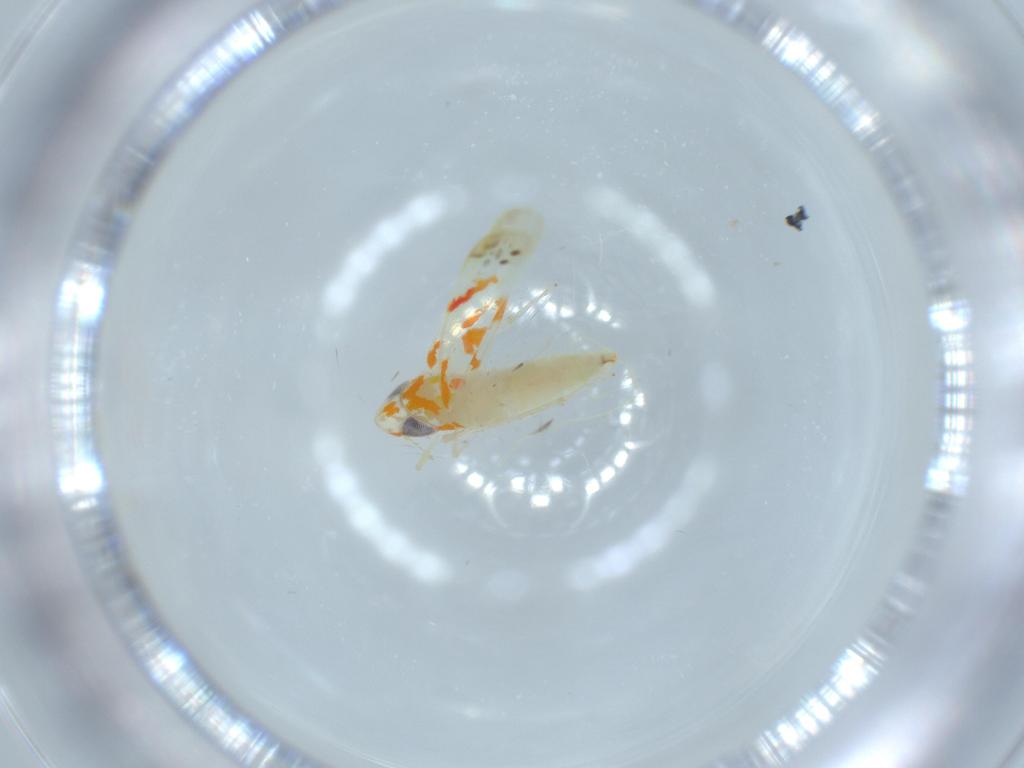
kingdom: Animalia
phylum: Arthropoda
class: Insecta
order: Hemiptera
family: Cicadellidae
